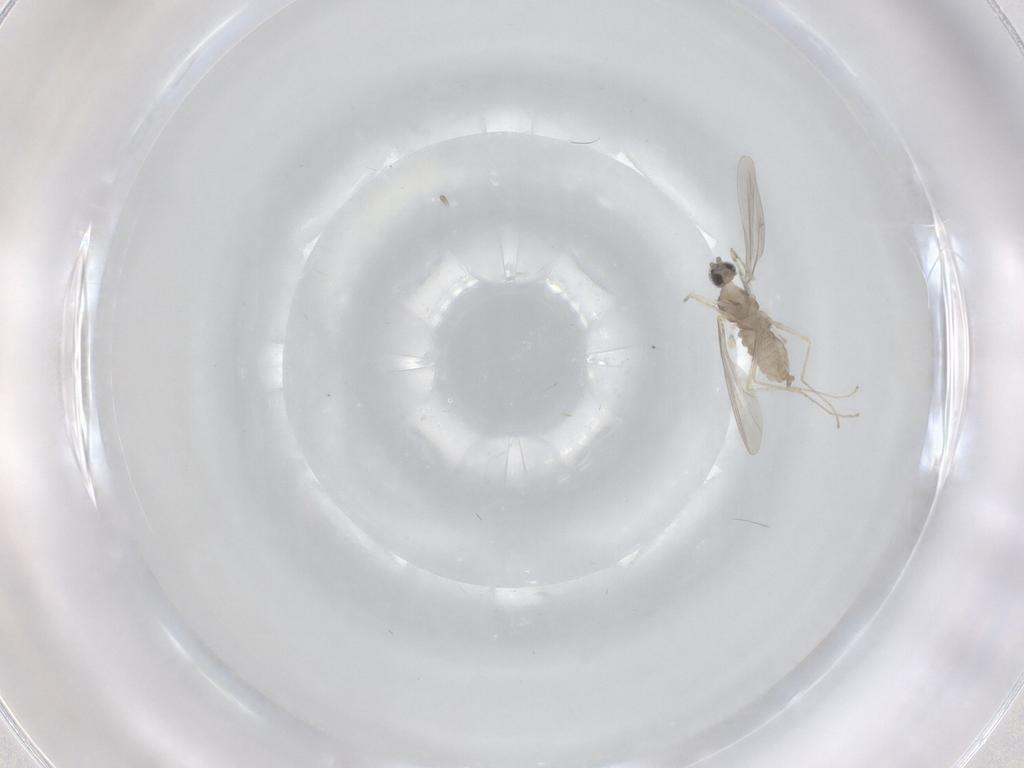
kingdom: Animalia
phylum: Arthropoda
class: Insecta
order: Diptera
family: Cecidomyiidae
